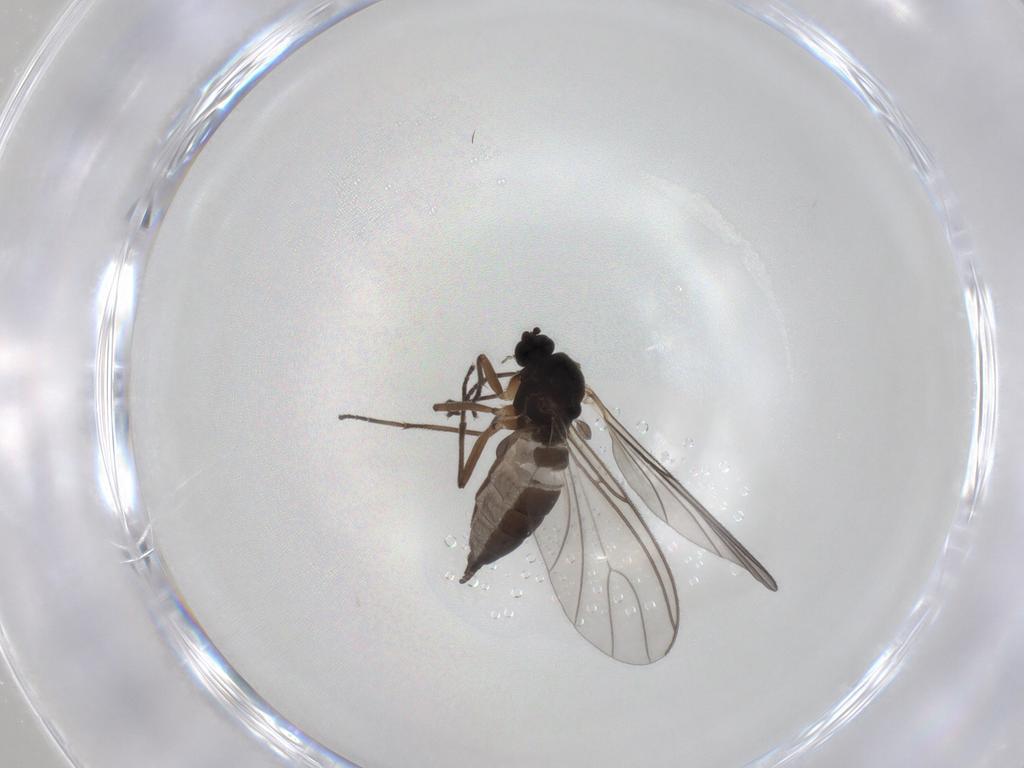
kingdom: Animalia
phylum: Arthropoda
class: Insecta
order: Diptera
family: Sciaridae
